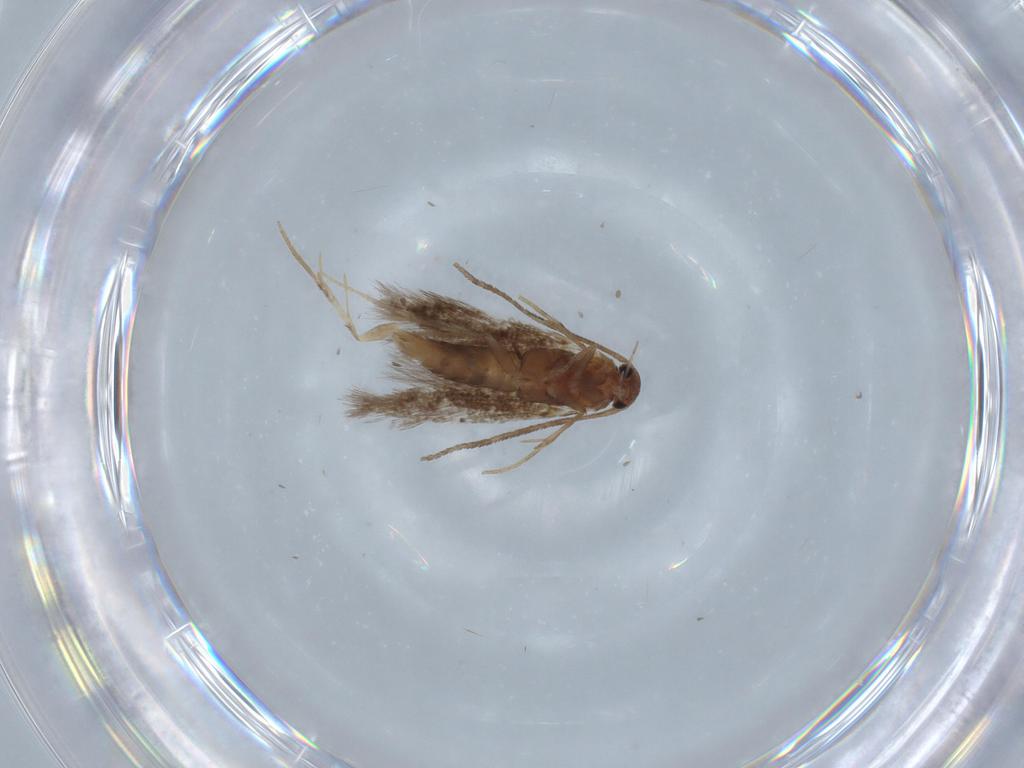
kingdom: Animalia
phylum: Arthropoda
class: Insecta
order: Lepidoptera
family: Elachistidae
